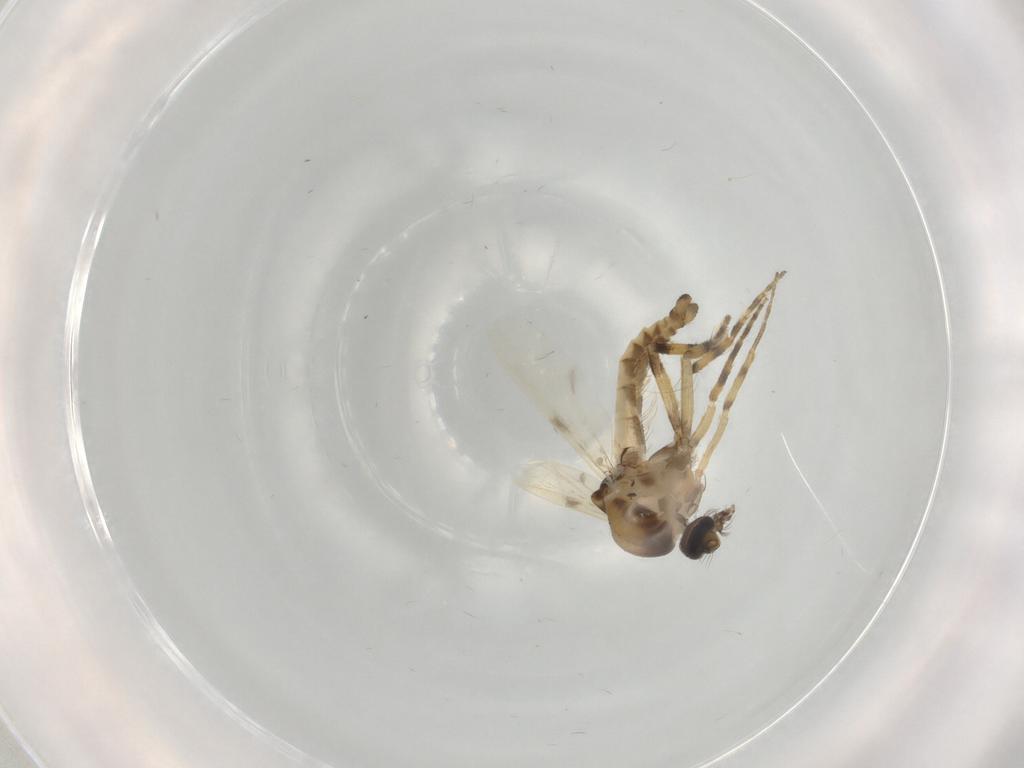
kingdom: Animalia
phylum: Arthropoda
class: Insecta
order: Diptera
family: Ceratopogonidae
